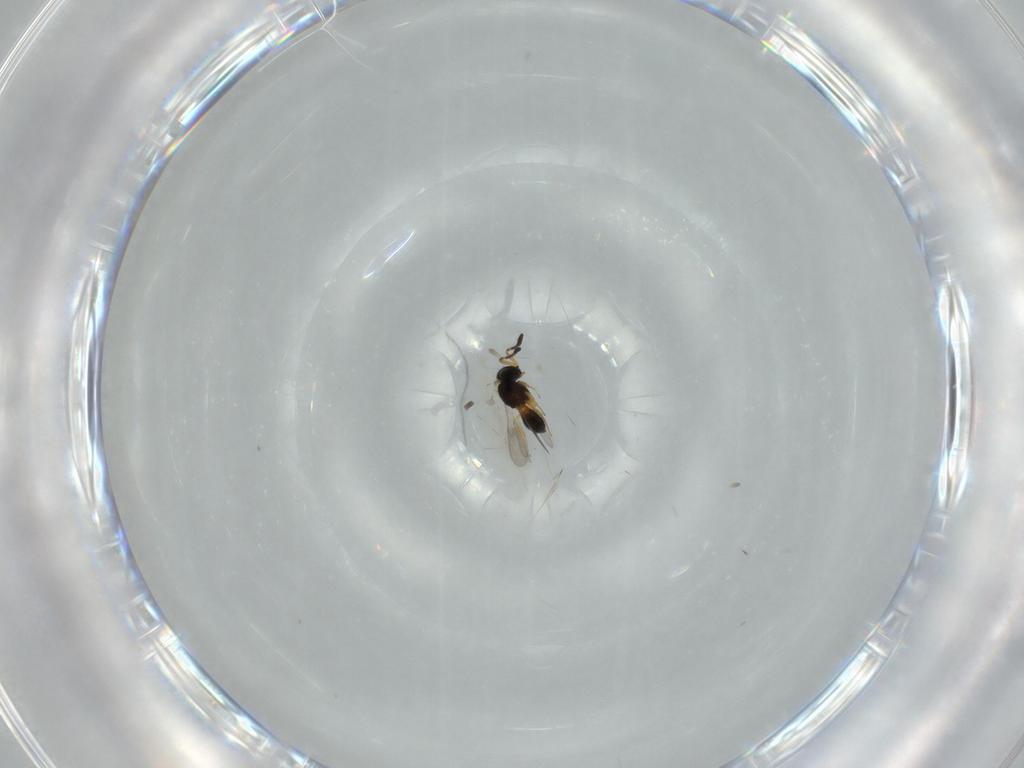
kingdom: Animalia
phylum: Arthropoda
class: Insecta
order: Hymenoptera
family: Scelionidae
